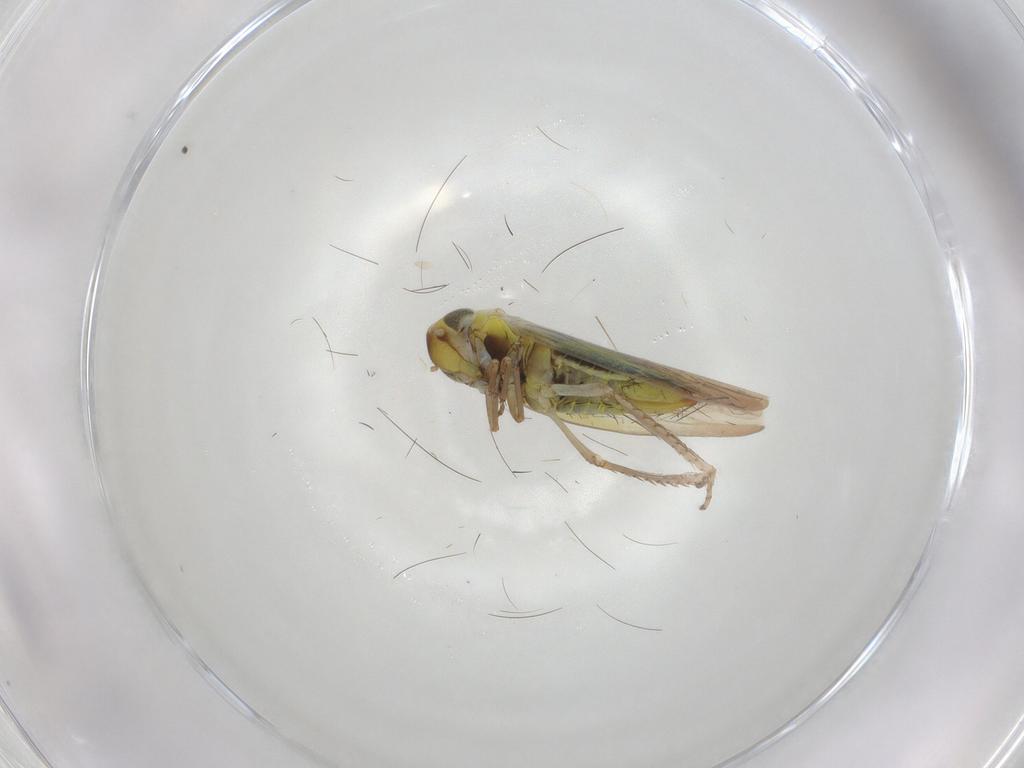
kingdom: Animalia
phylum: Arthropoda
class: Insecta
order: Hemiptera
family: Cicadellidae
